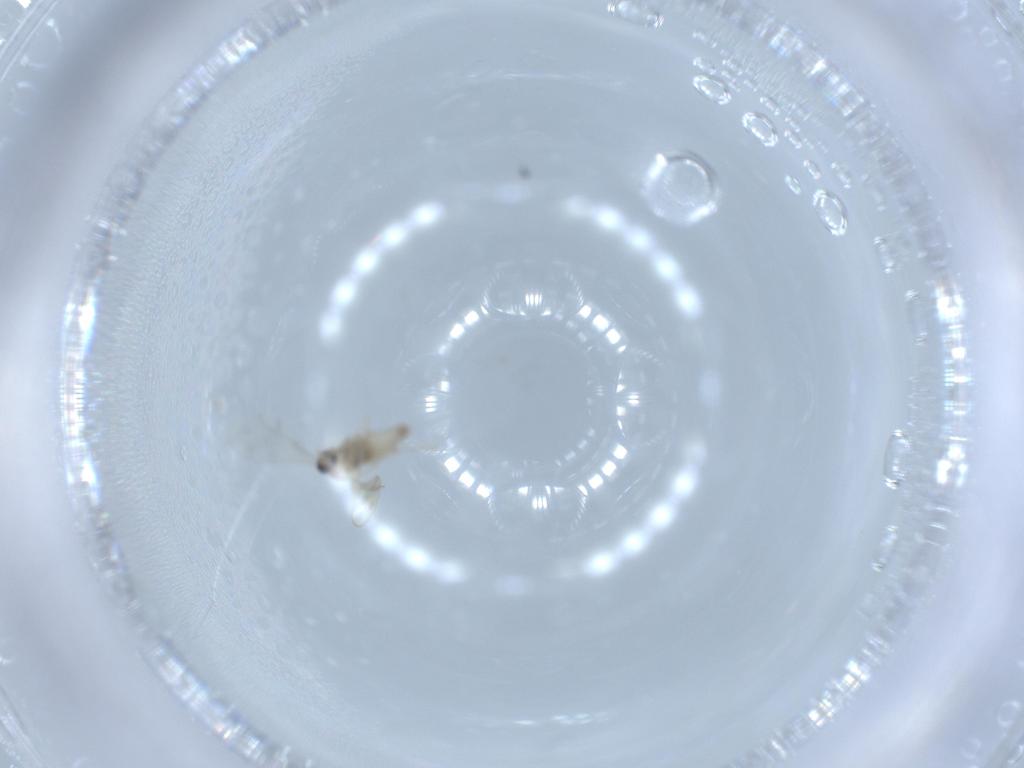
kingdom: Animalia
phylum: Arthropoda
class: Insecta
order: Diptera
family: Cecidomyiidae
